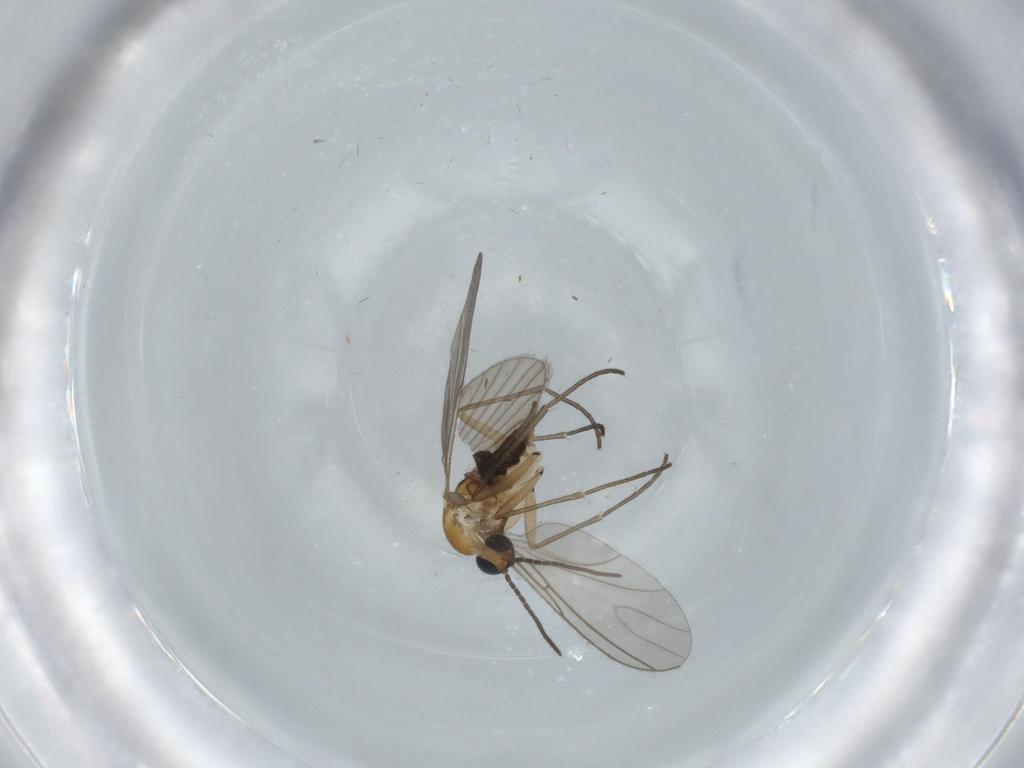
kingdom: Animalia
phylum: Arthropoda
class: Insecta
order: Diptera
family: Sciaridae
